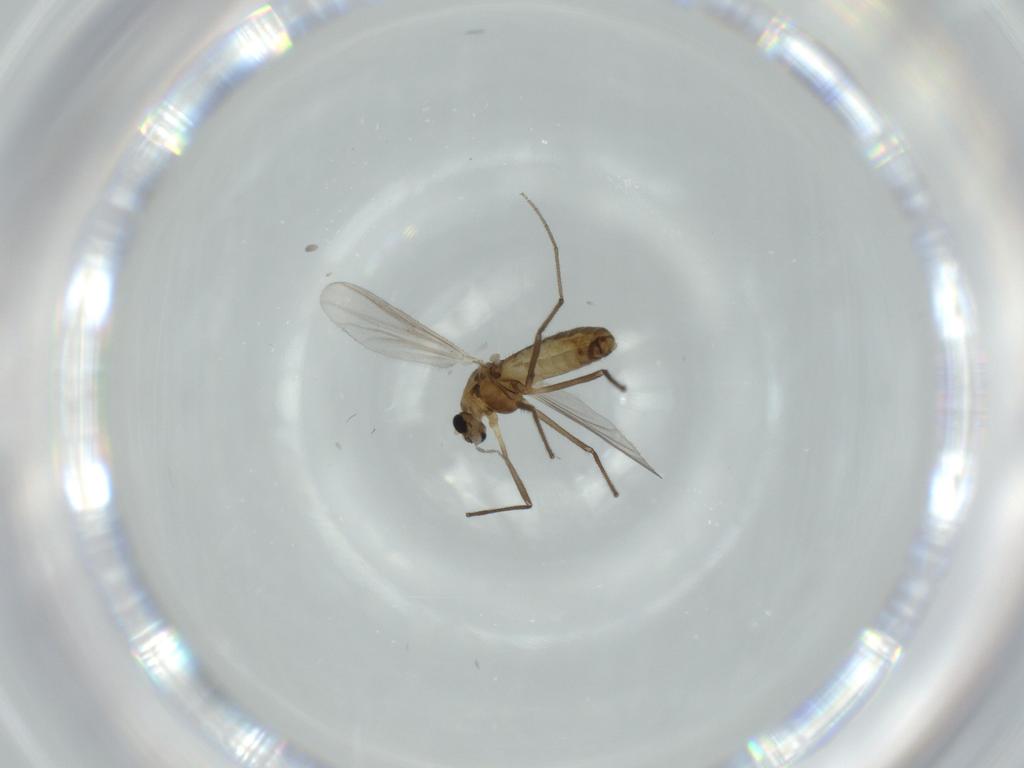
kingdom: Animalia
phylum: Arthropoda
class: Insecta
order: Diptera
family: Chironomidae
